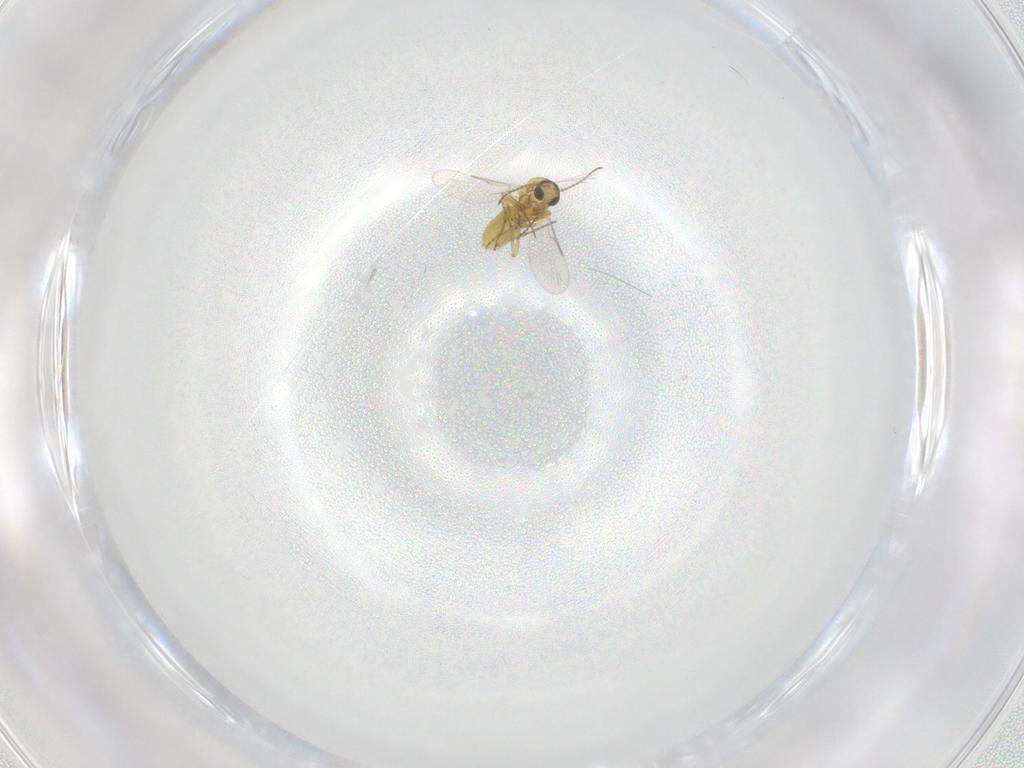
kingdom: Animalia
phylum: Arthropoda
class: Insecta
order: Diptera
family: Ceratopogonidae
